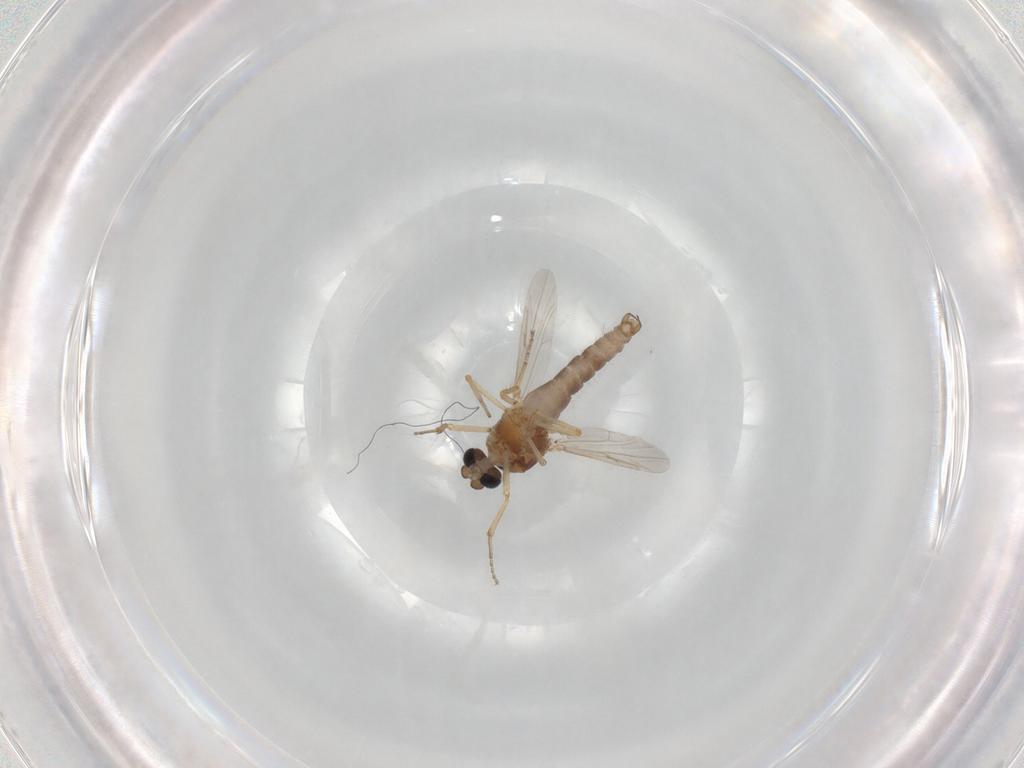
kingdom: Animalia
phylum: Arthropoda
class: Insecta
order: Diptera
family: Ceratopogonidae
